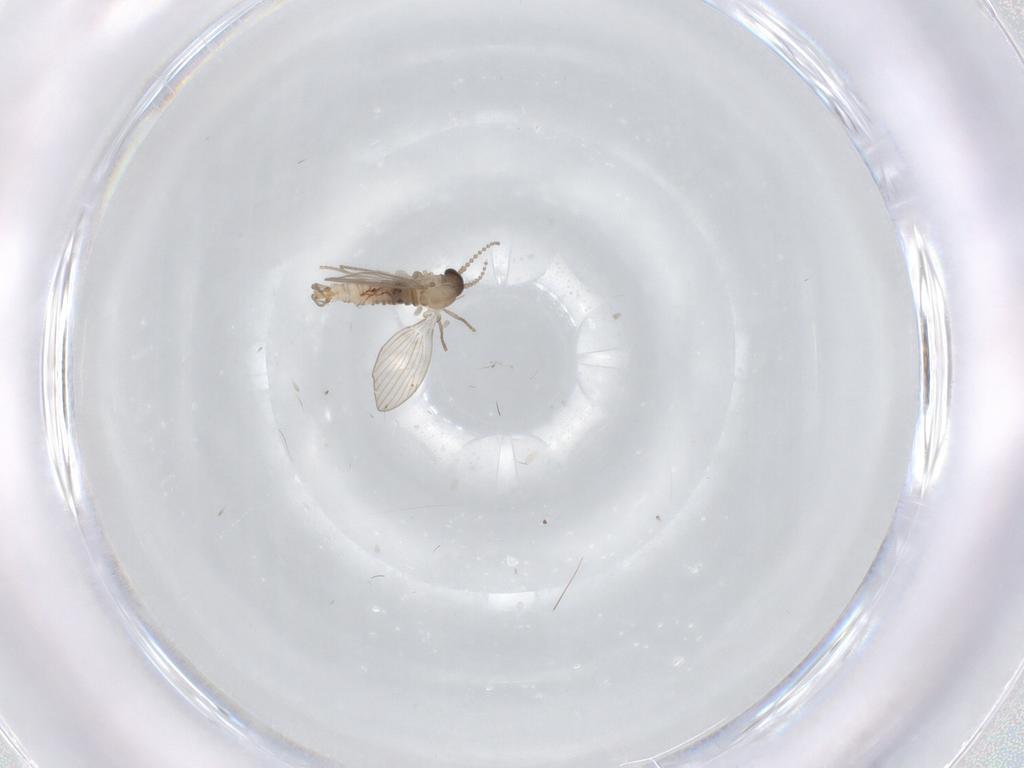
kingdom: Animalia
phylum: Arthropoda
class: Insecta
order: Diptera
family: Psychodidae
